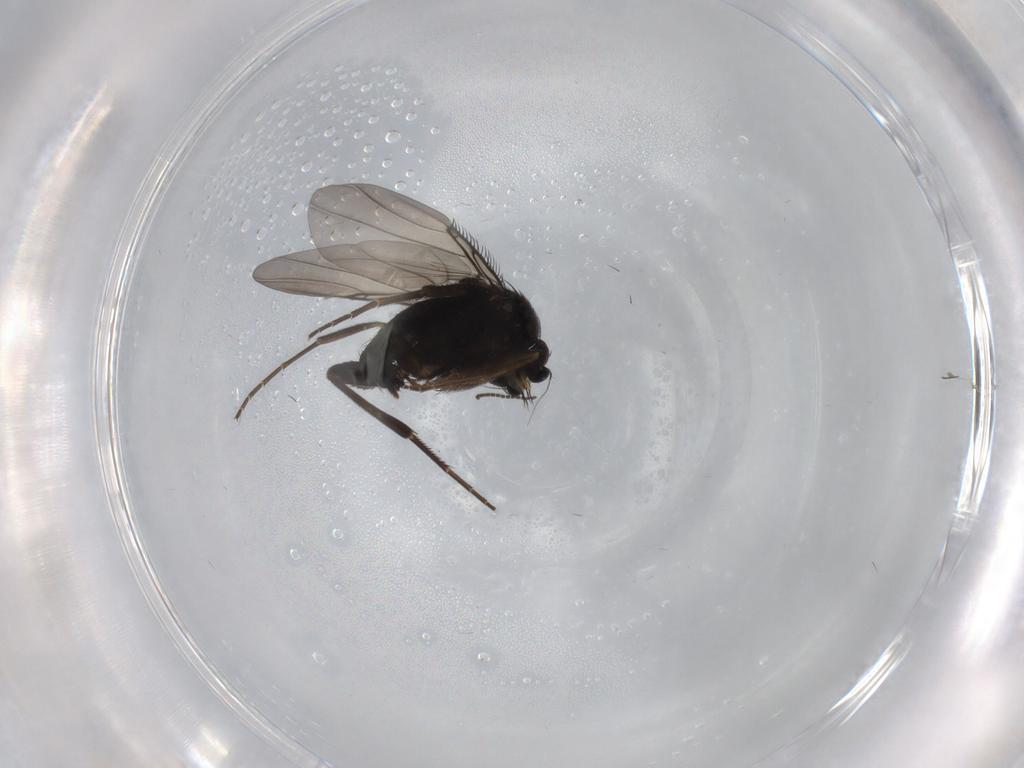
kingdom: Animalia
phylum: Arthropoda
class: Insecta
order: Diptera
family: Phoridae
